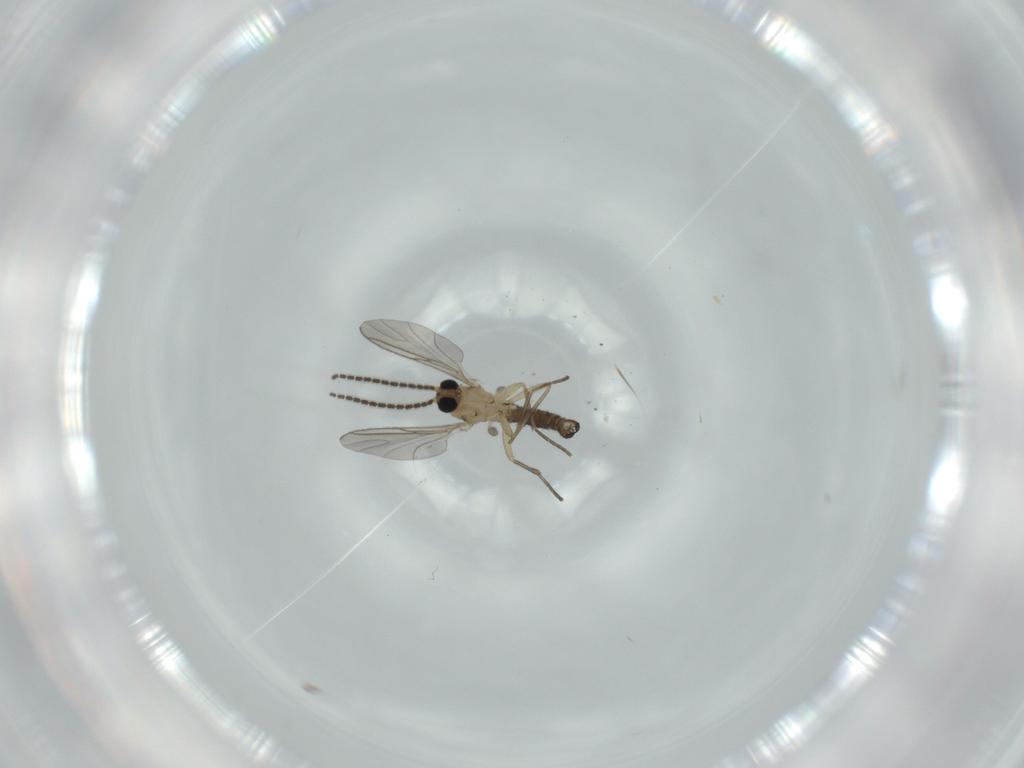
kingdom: Animalia
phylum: Arthropoda
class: Insecta
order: Diptera
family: Sciaridae
